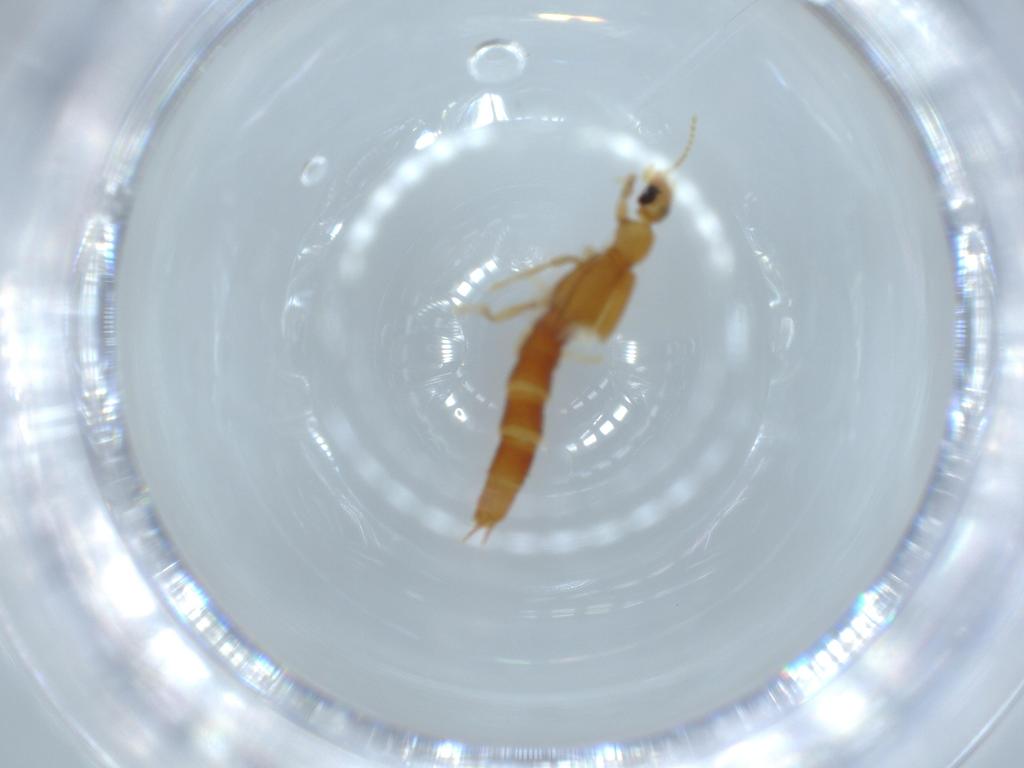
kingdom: Animalia
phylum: Arthropoda
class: Insecta
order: Coleoptera
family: Staphylinidae
